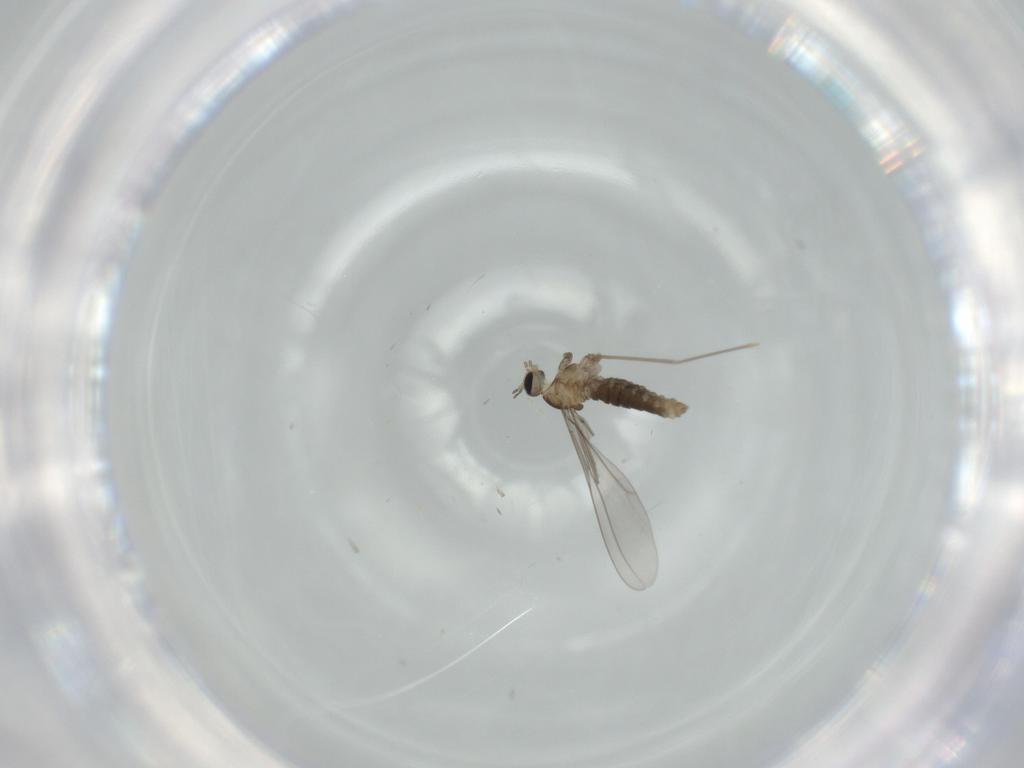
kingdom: Animalia
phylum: Arthropoda
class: Insecta
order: Diptera
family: Cecidomyiidae
